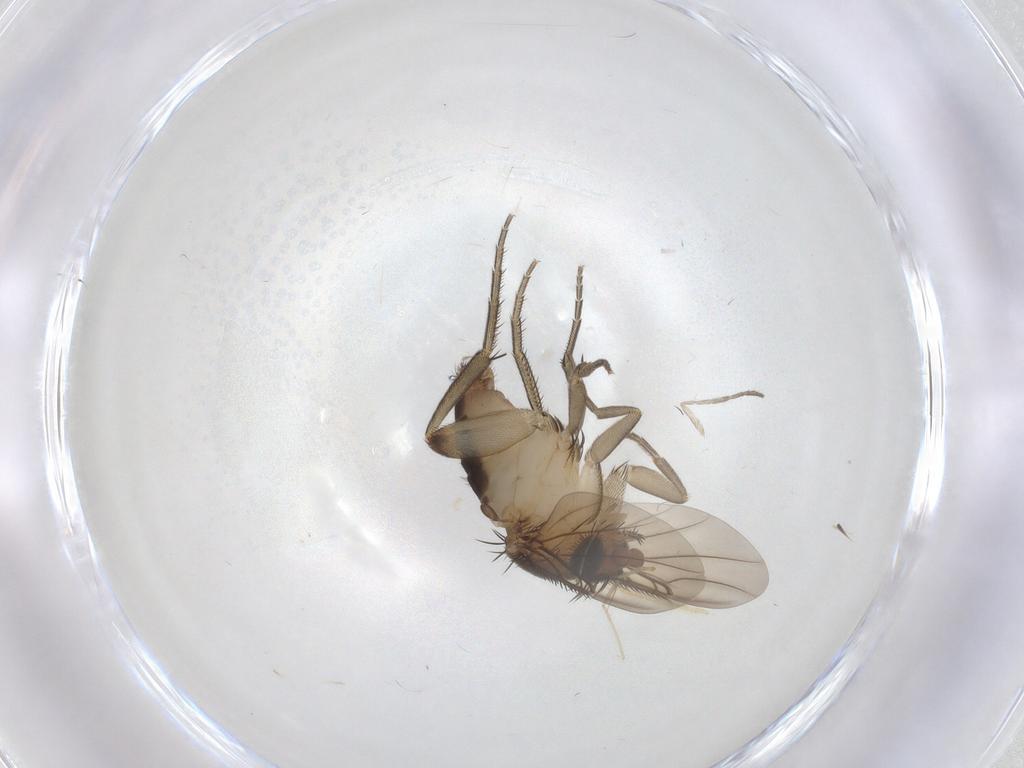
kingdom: Animalia
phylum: Arthropoda
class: Insecta
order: Diptera
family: Phoridae
